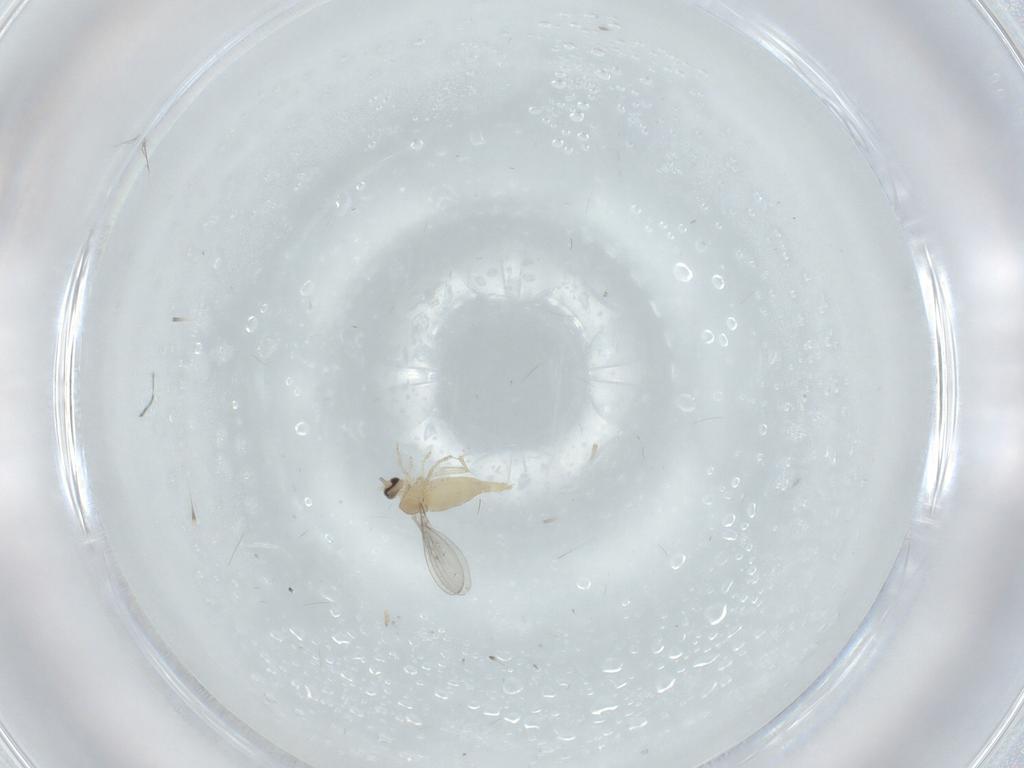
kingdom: Animalia
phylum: Arthropoda
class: Insecta
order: Diptera
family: Cecidomyiidae
